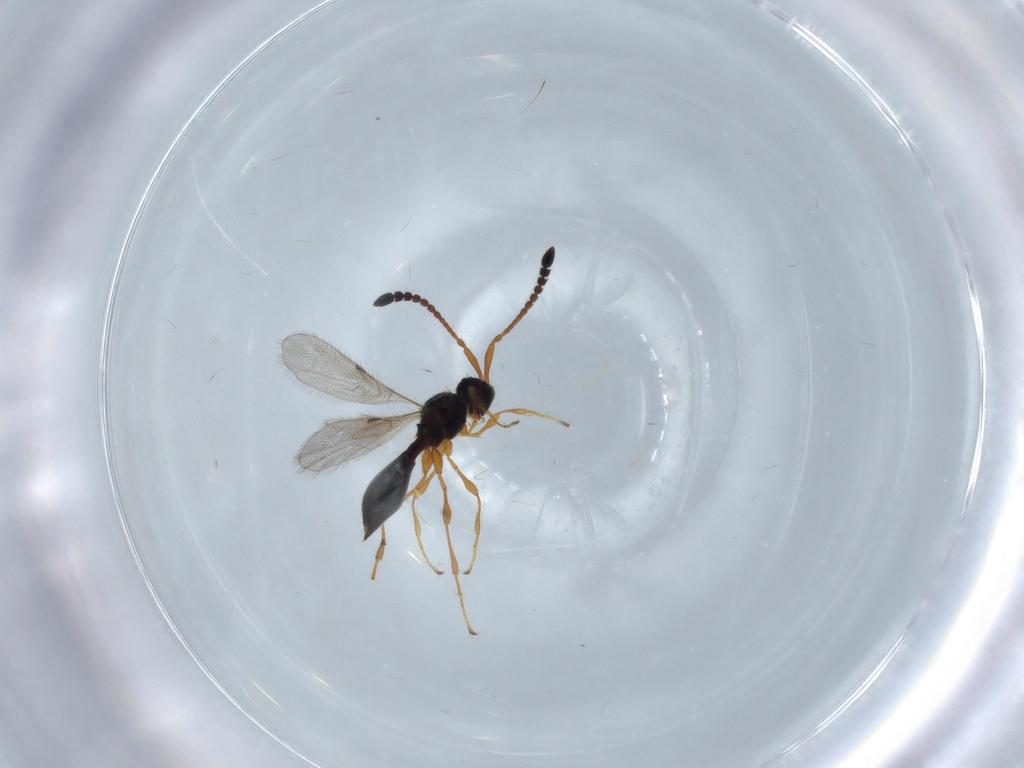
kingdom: Animalia
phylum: Arthropoda
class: Insecta
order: Hymenoptera
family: Diapriidae
